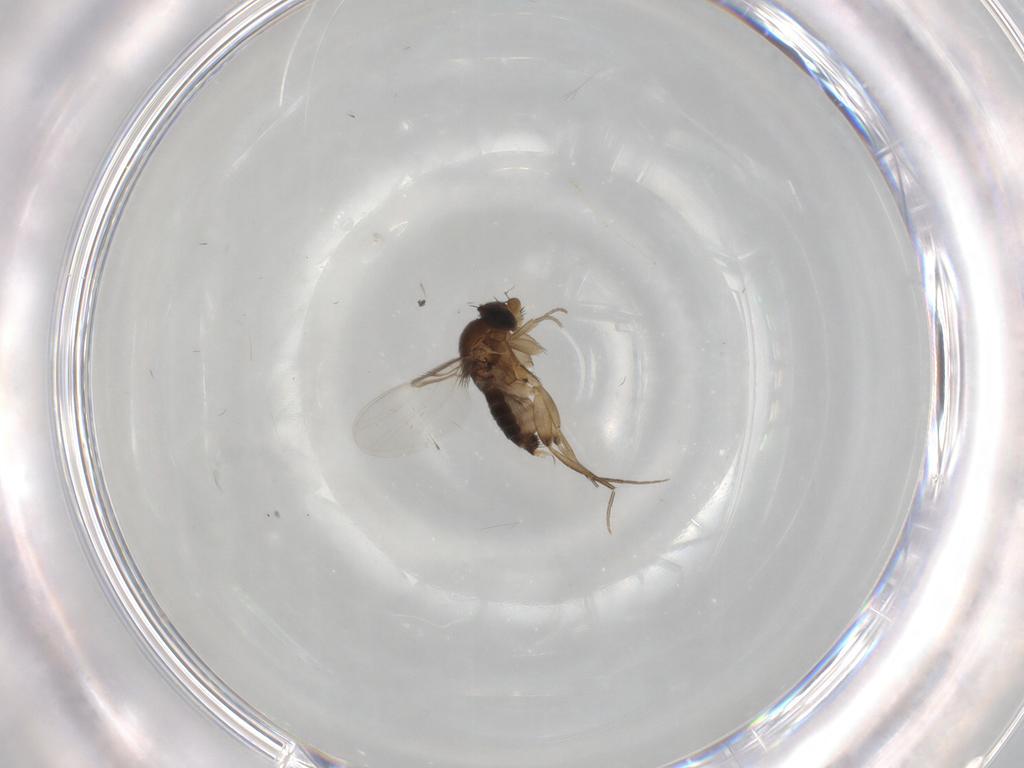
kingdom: Animalia
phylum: Arthropoda
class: Insecta
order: Diptera
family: Phoridae
